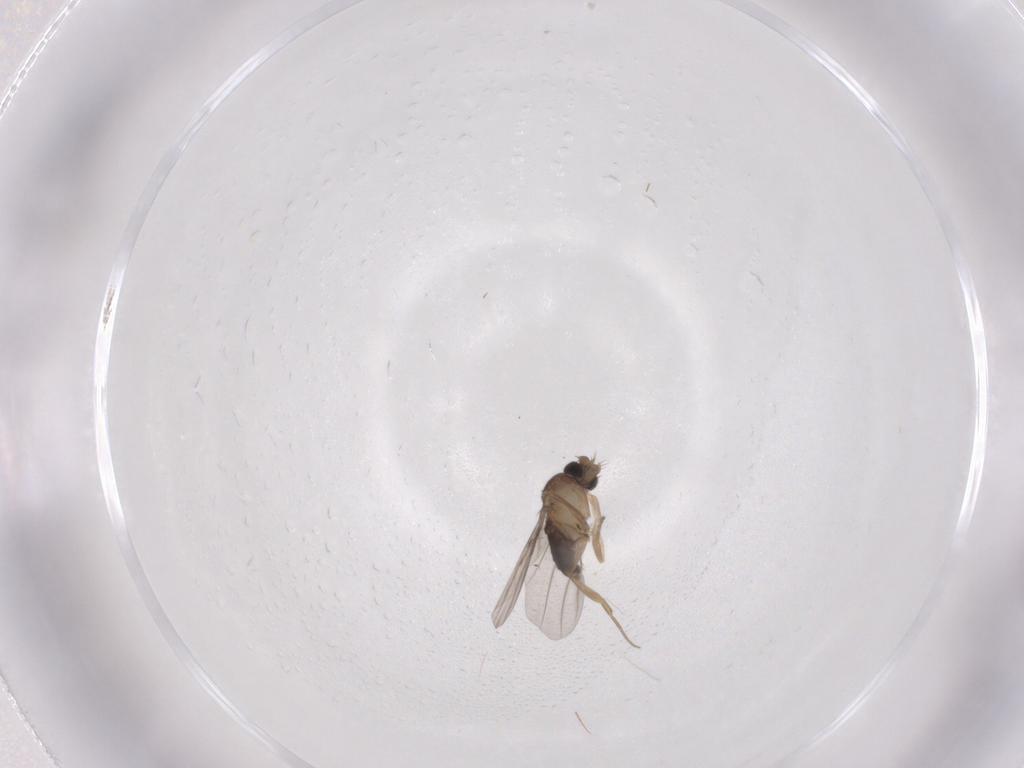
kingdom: Animalia
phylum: Arthropoda
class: Insecta
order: Diptera
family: Phoridae
